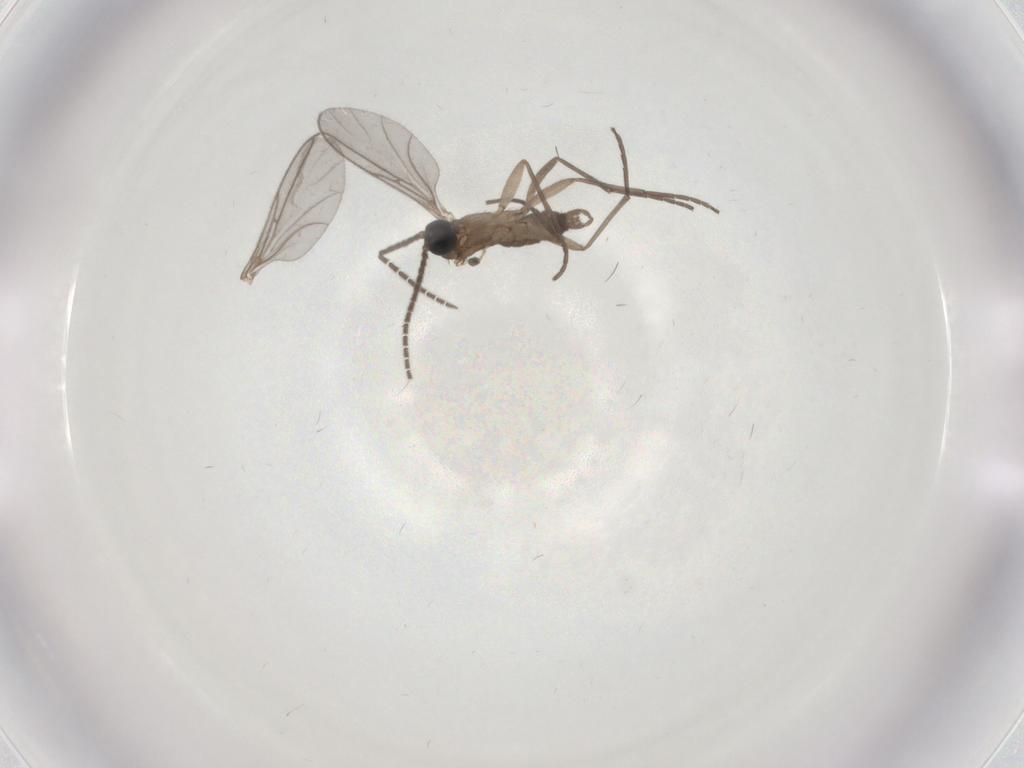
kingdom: Animalia
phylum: Arthropoda
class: Insecta
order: Diptera
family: Sciaridae
